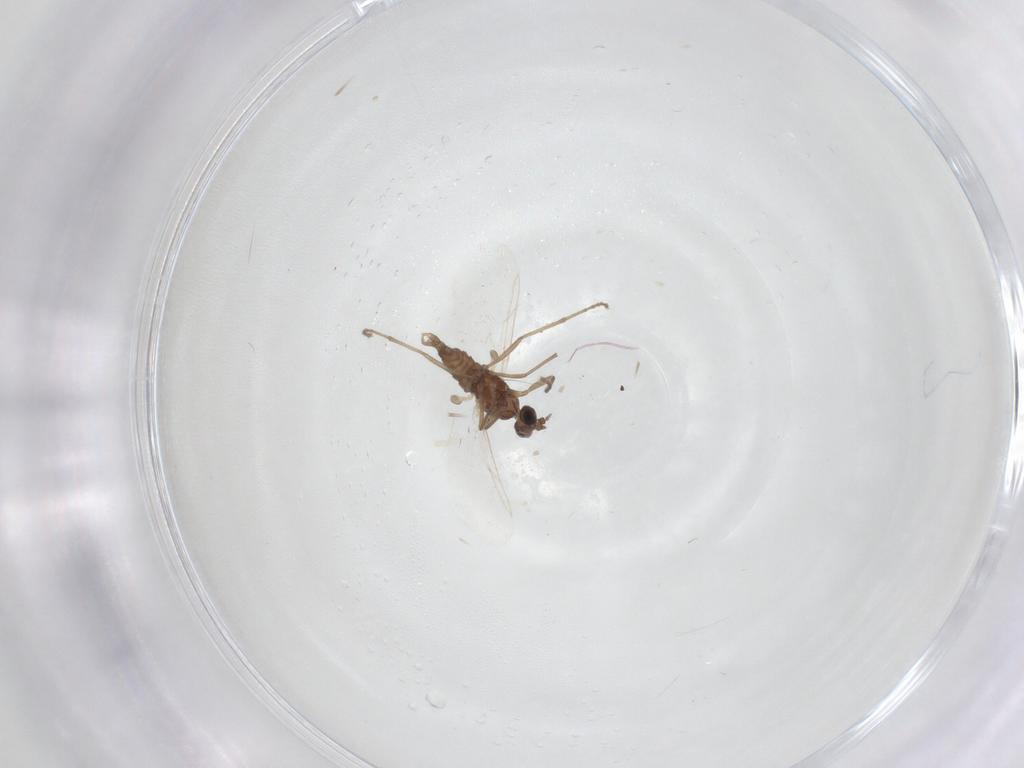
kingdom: Animalia
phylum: Arthropoda
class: Insecta
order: Diptera
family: Cecidomyiidae
